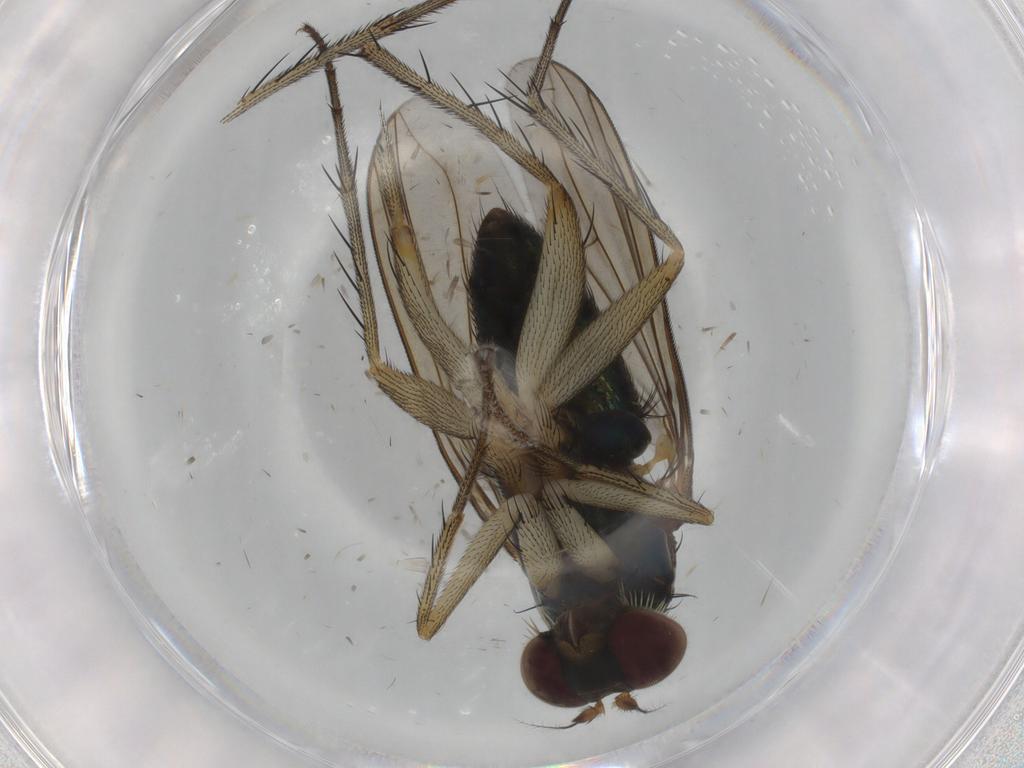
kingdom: Animalia
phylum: Arthropoda
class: Insecta
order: Diptera
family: Dolichopodidae
